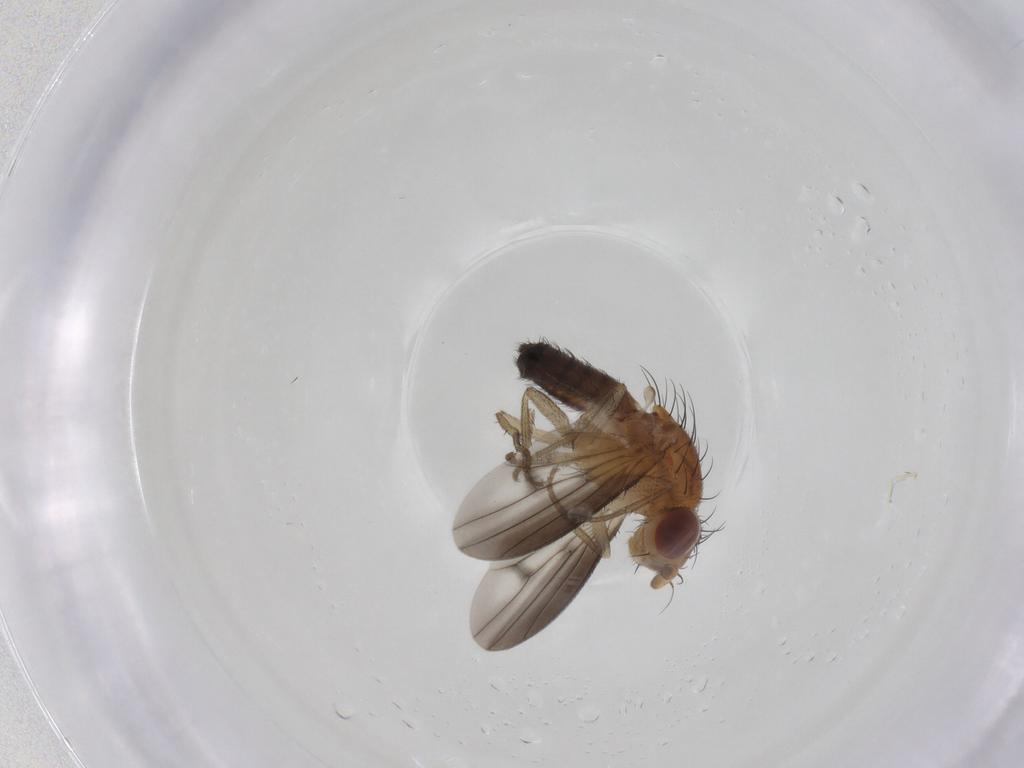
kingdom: Animalia
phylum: Arthropoda
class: Insecta
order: Diptera
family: Heleomyzidae
